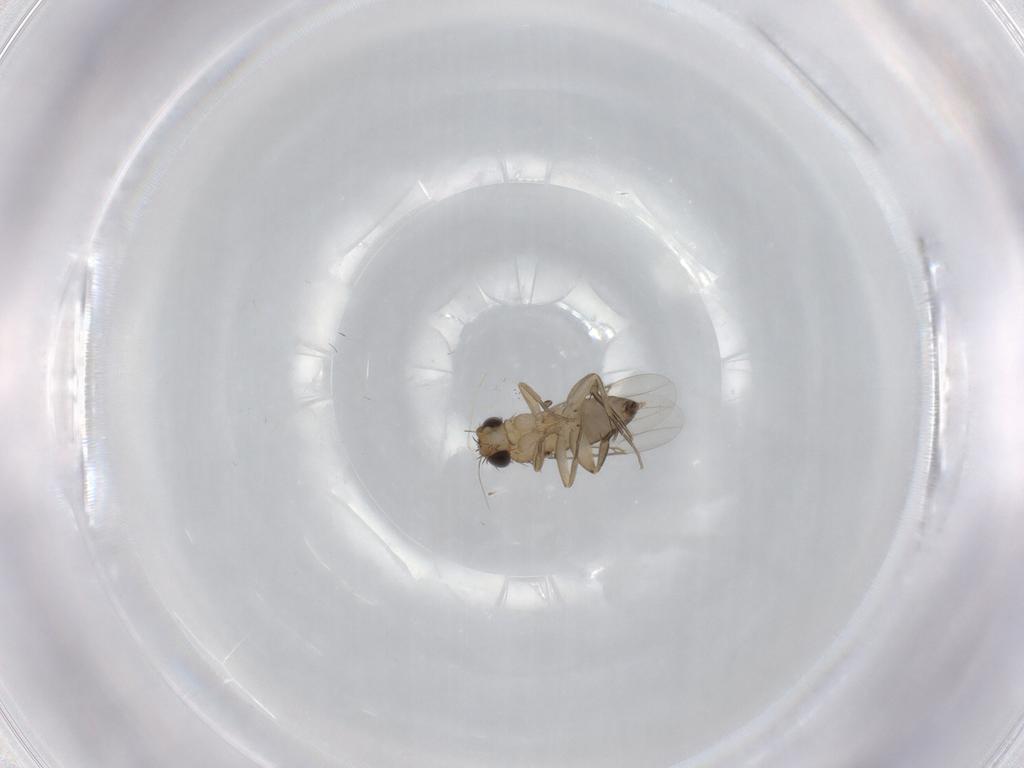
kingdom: Animalia
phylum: Arthropoda
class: Insecta
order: Diptera
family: Phoridae
